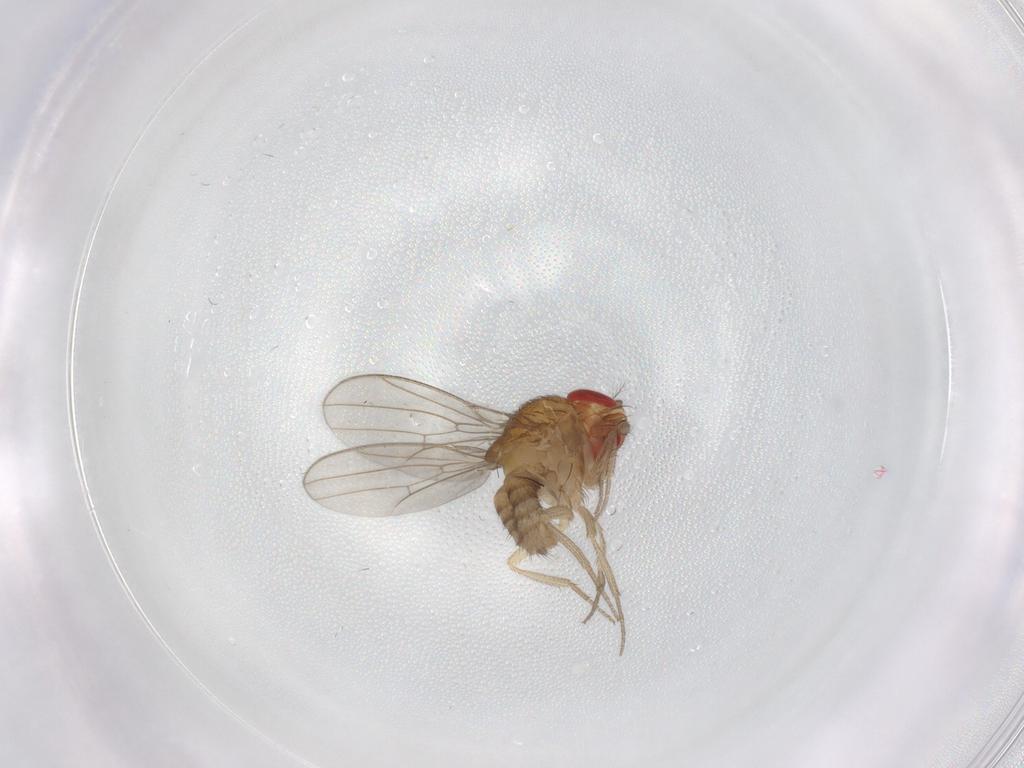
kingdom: Animalia
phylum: Arthropoda
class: Insecta
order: Diptera
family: Drosophilidae
